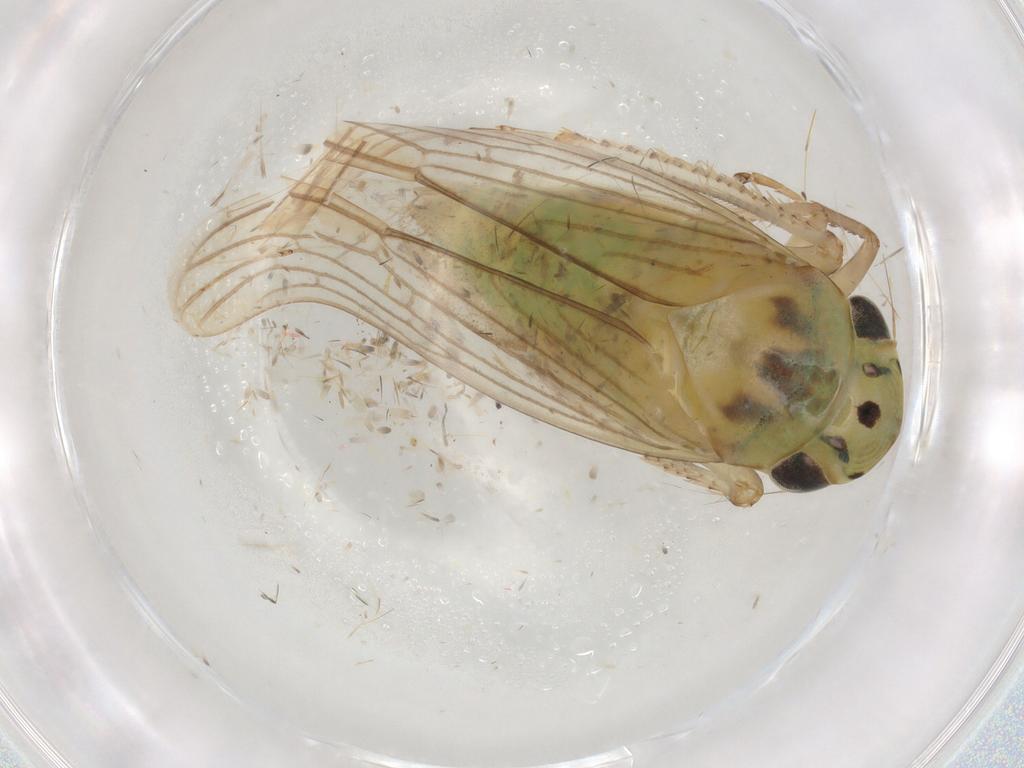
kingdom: Animalia
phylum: Arthropoda
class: Insecta
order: Hemiptera
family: Cicadellidae
